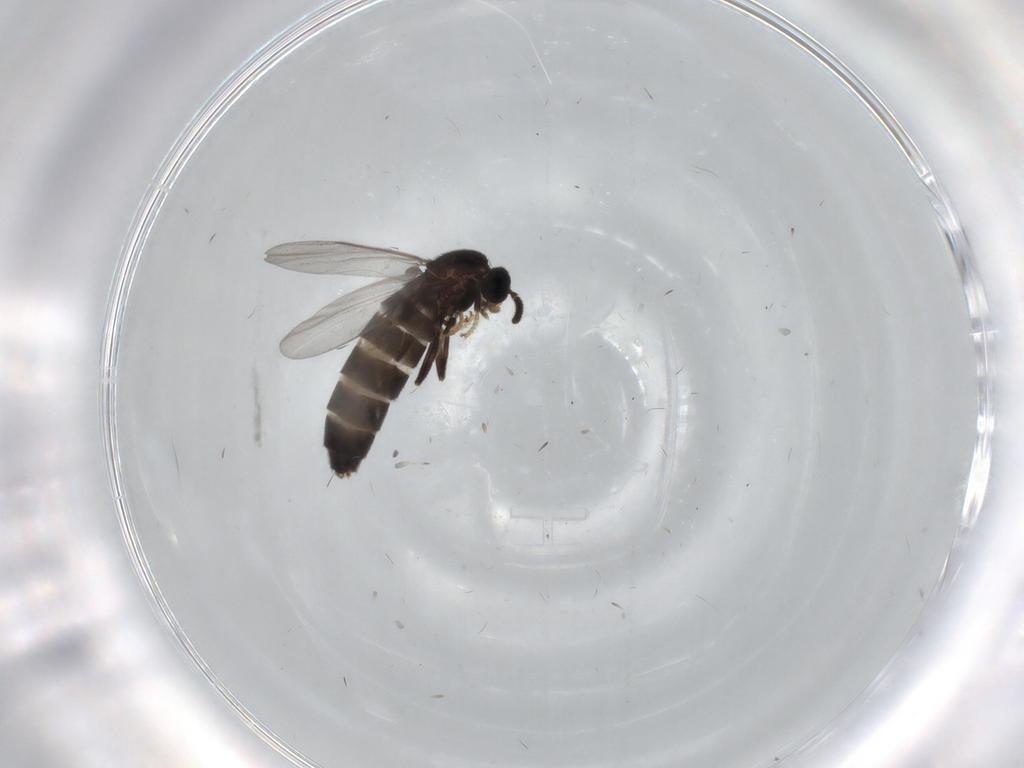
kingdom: Animalia
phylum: Arthropoda
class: Insecta
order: Diptera
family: Scatopsidae
